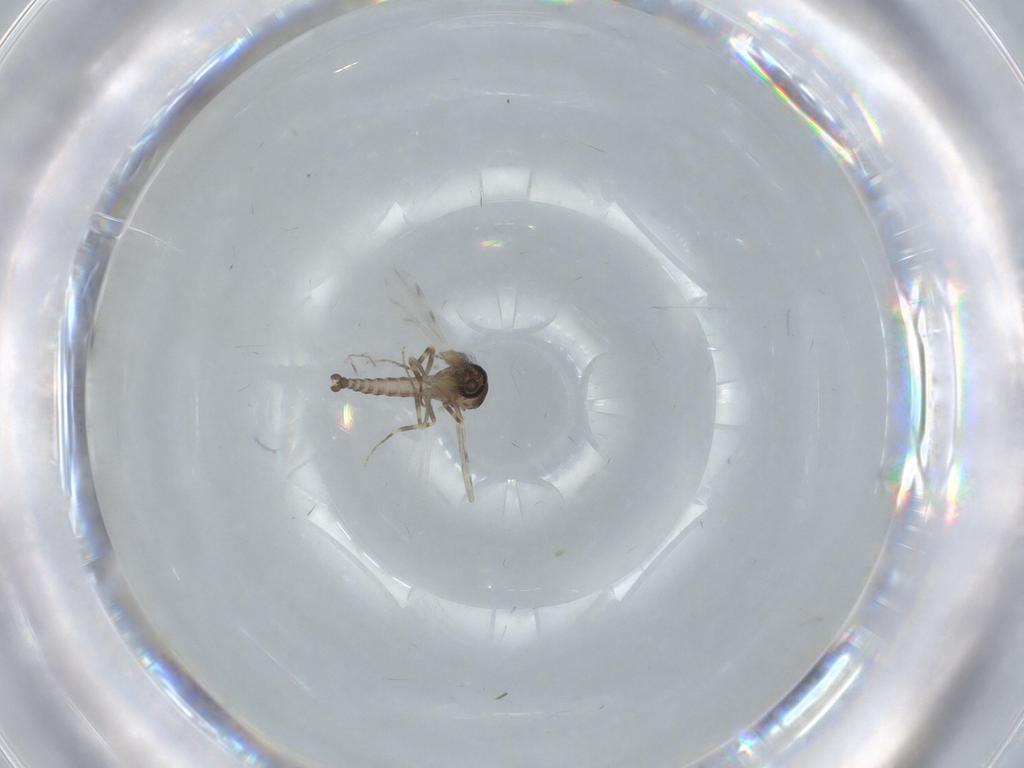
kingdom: Animalia
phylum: Arthropoda
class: Insecta
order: Diptera
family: Ceratopogonidae
